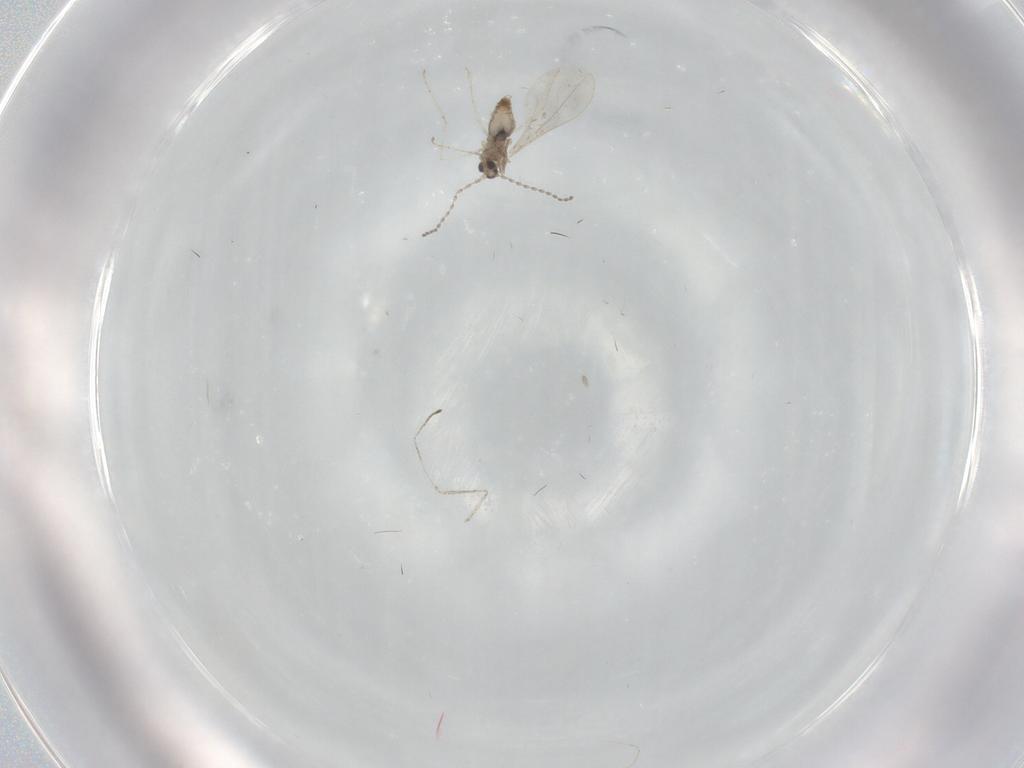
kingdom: Animalia
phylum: Arthropoda
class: Insecta
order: Diptera
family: Cecidomyiidae
